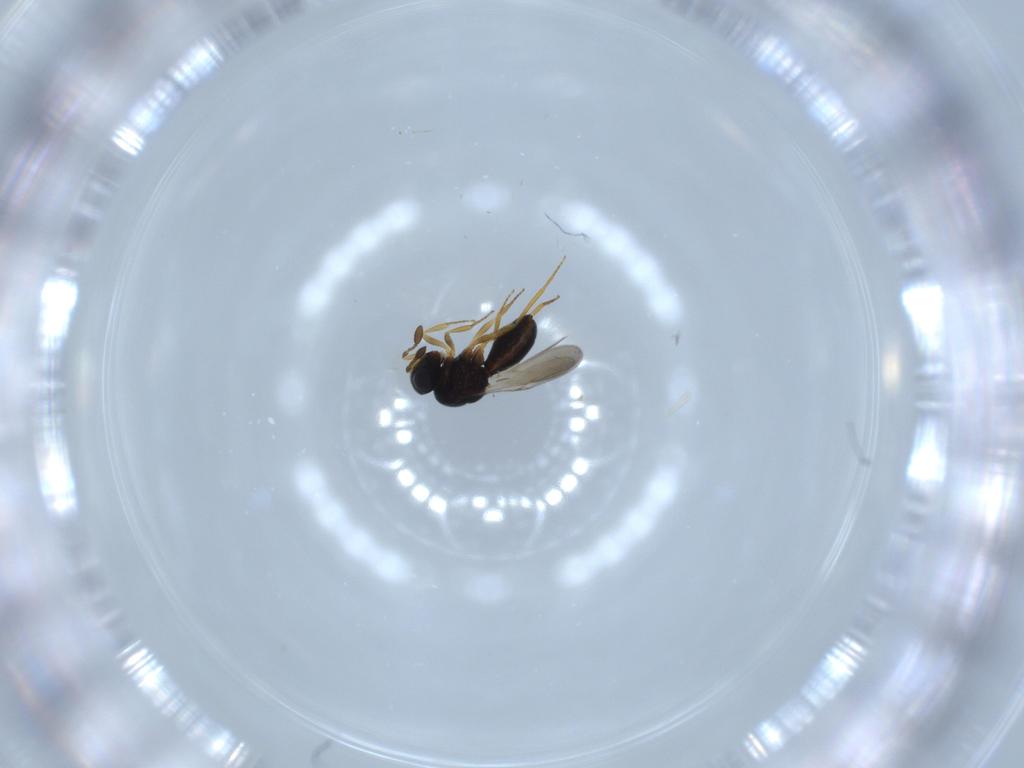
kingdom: Animalia
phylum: Arthropoda
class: Insecta
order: Hymenoptera
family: Scelionidae
